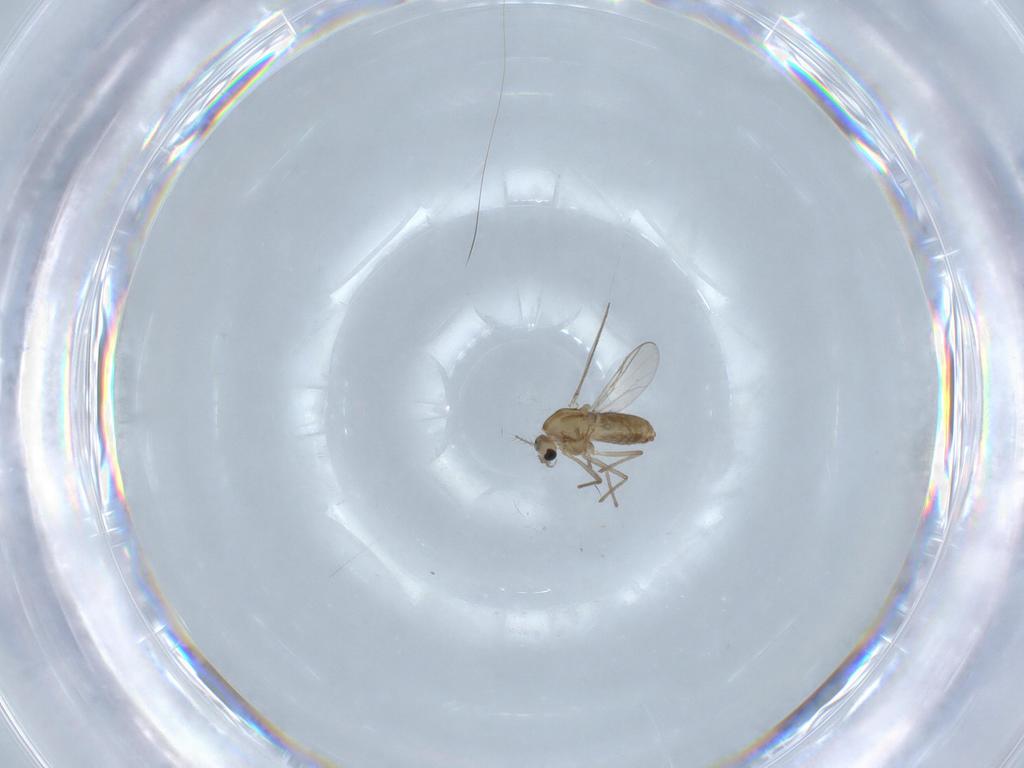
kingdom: Animalia
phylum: Arthropoda
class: Insecta
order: Diptera
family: Chironomidae
